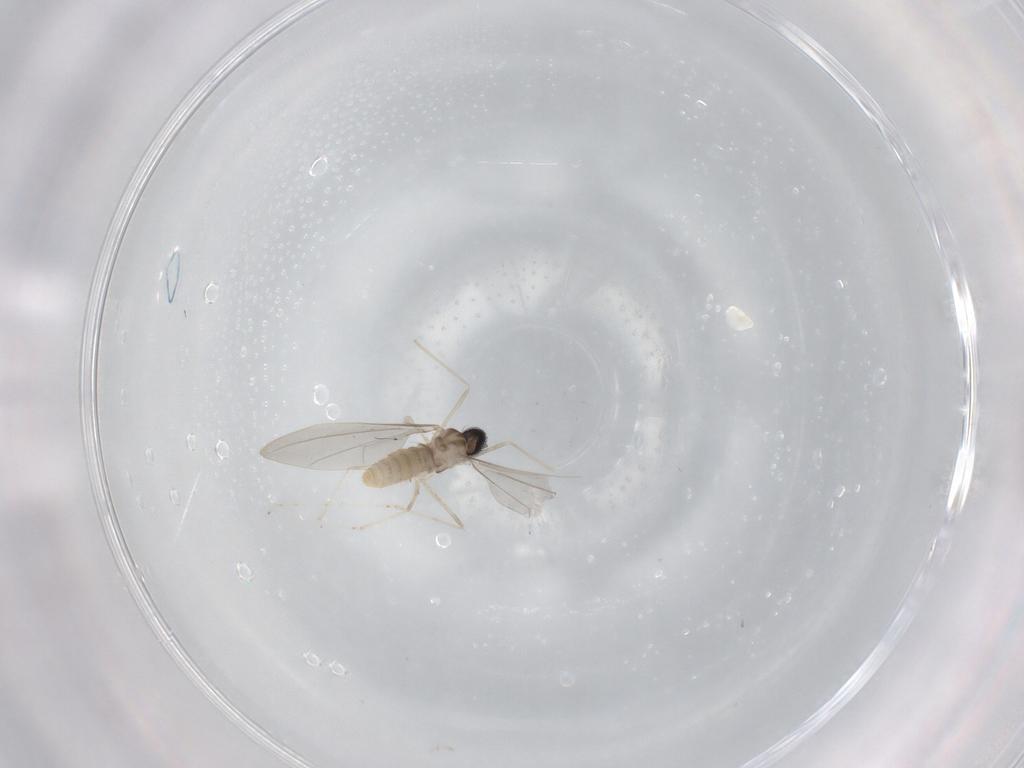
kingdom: Animalia
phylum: Arthropoda
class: Insecta
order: Diptera
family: Cecidomyiidae
